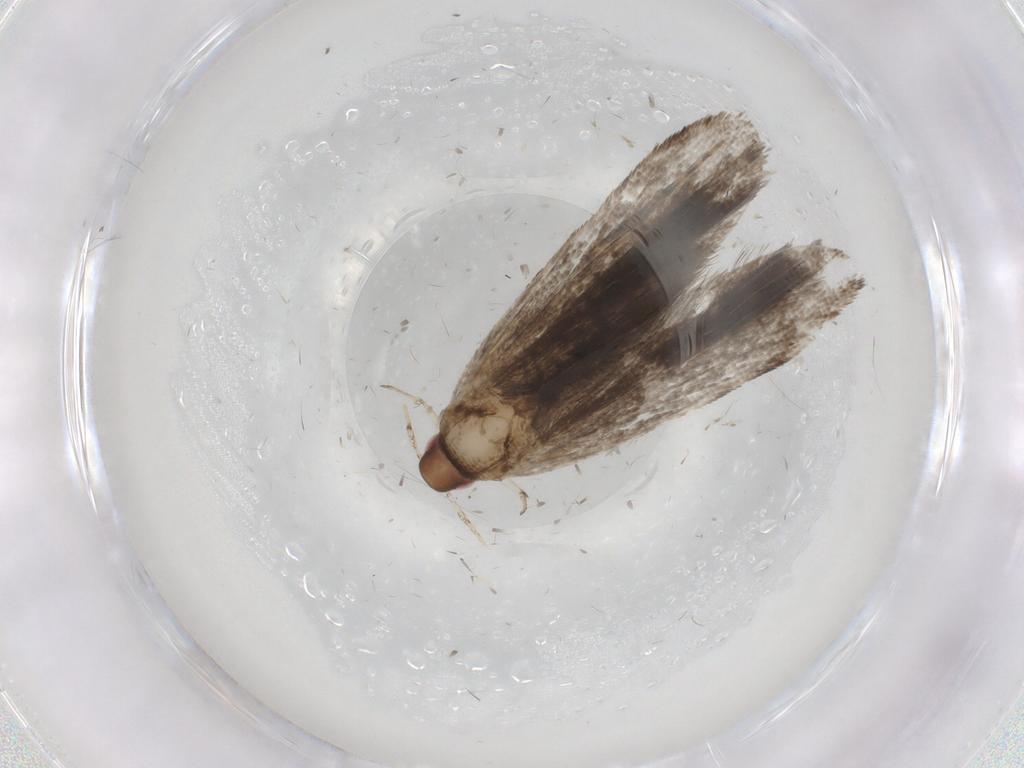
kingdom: Animalia
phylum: Arthropoda
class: Insecta
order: Lepidoptera
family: Gelechiidae
